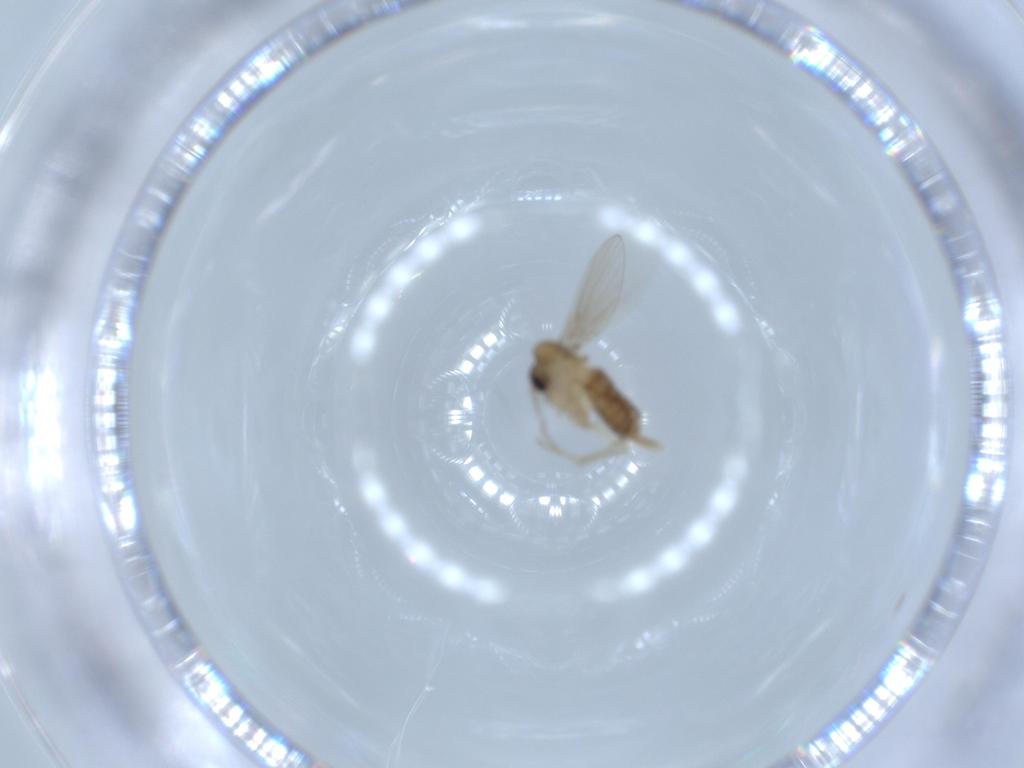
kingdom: Animalia
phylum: Arthropoda
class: Insecta
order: Diptera
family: Psychodidae
